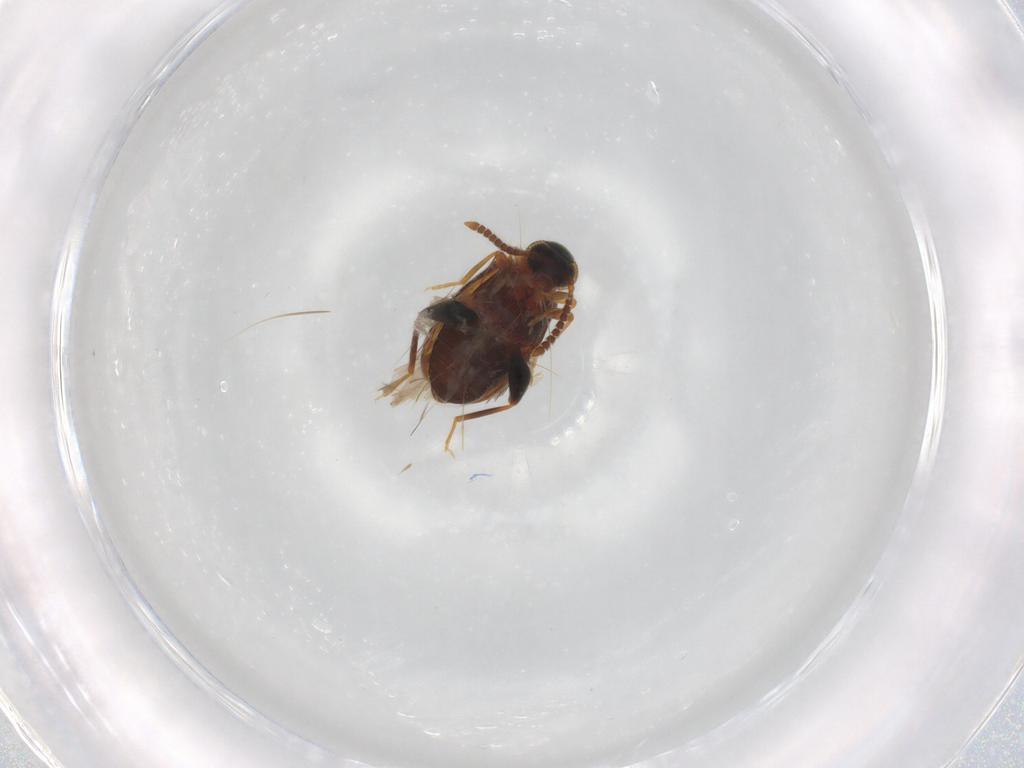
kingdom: Animalia
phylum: Arthropoda
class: Insecta
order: Coleoptera
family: Aderidae
